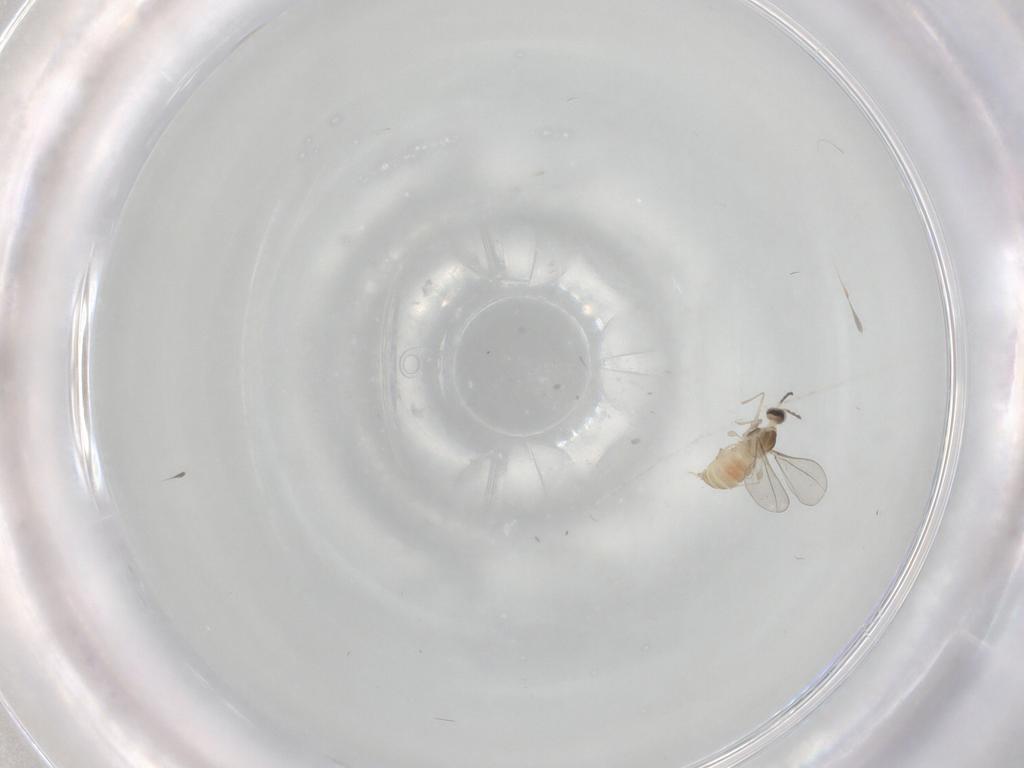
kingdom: Animalia
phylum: Arthropoda
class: Insecta
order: Diptera
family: Cecidomyiidae
